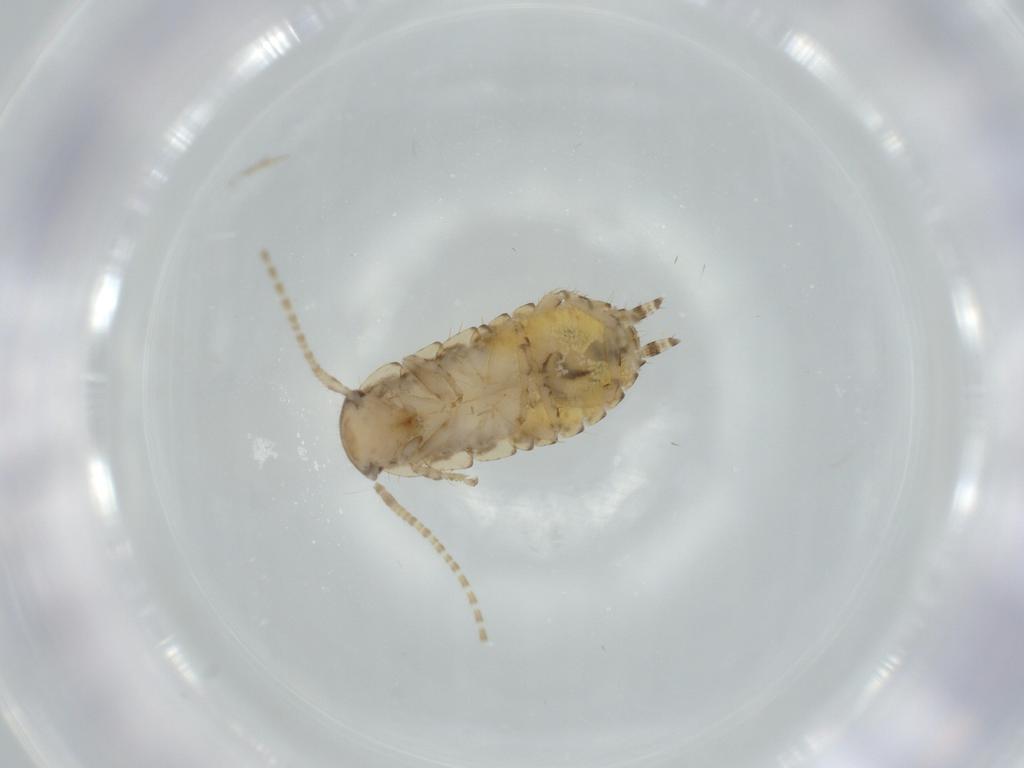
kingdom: Animalia
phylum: Arthropoda
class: Insecta
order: Blattodea
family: Ectobiidae
